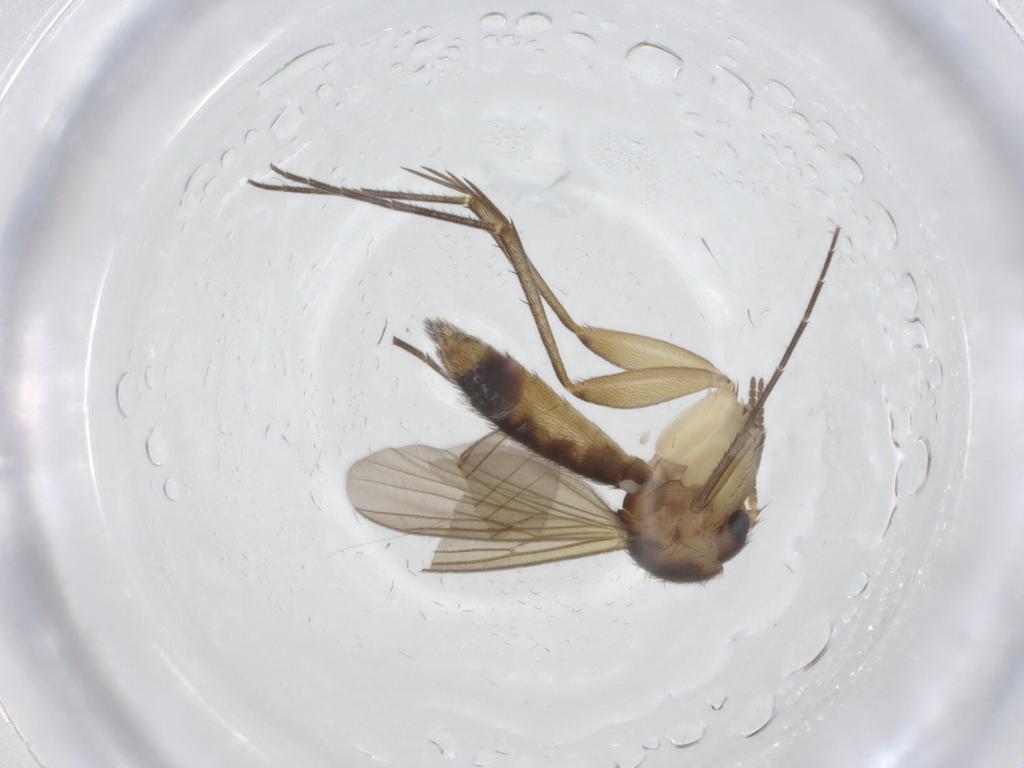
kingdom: Animalia
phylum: Arthropoda
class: Insecta
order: Diptera
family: Mycetophilidae
